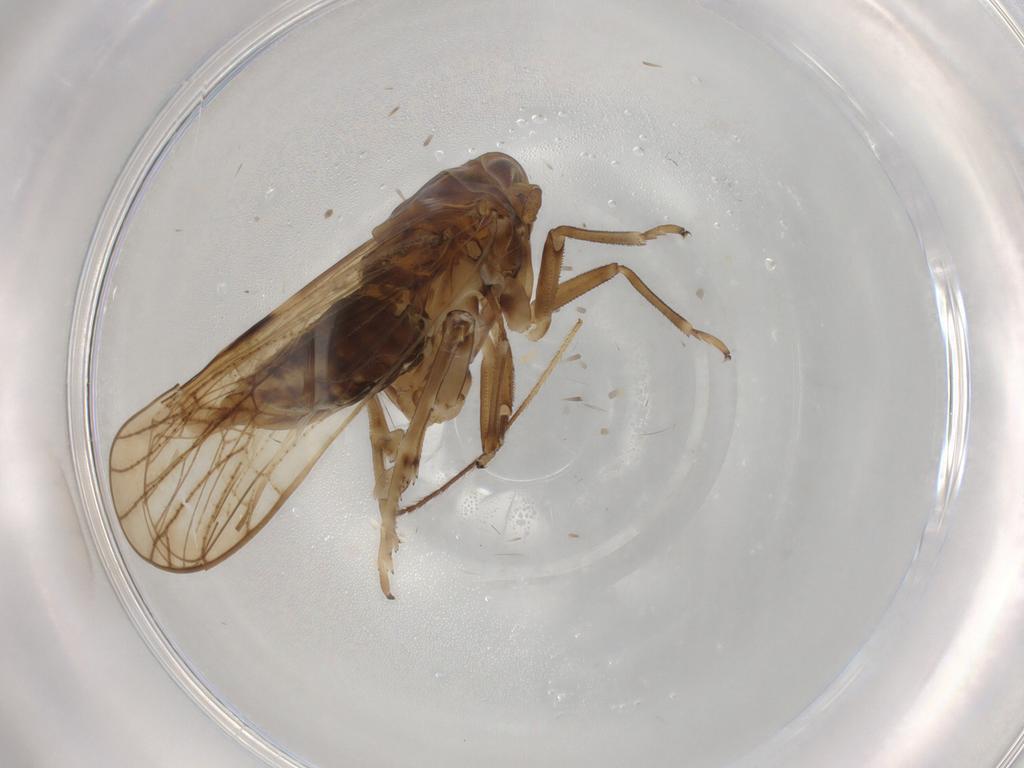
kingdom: Animalia
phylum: Arthropoda
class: Insecta
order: Hemiptera
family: Delphacidae
